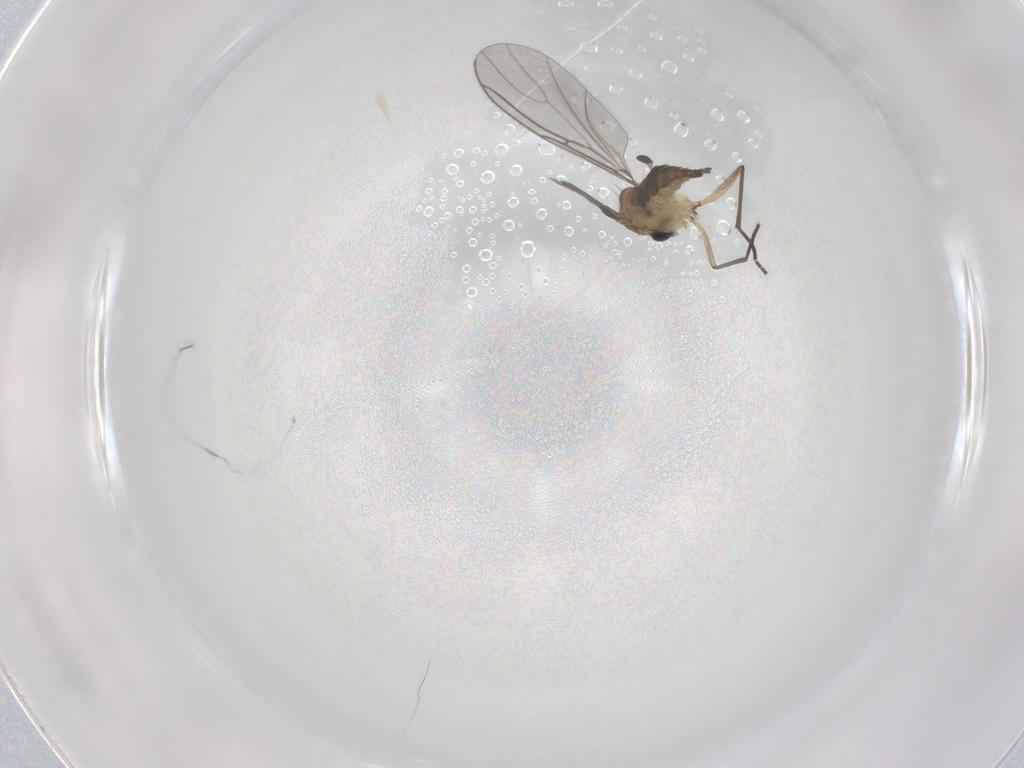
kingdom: Animalia
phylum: Arthropoda
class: Insecta
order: Diptera
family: Sciaridae
